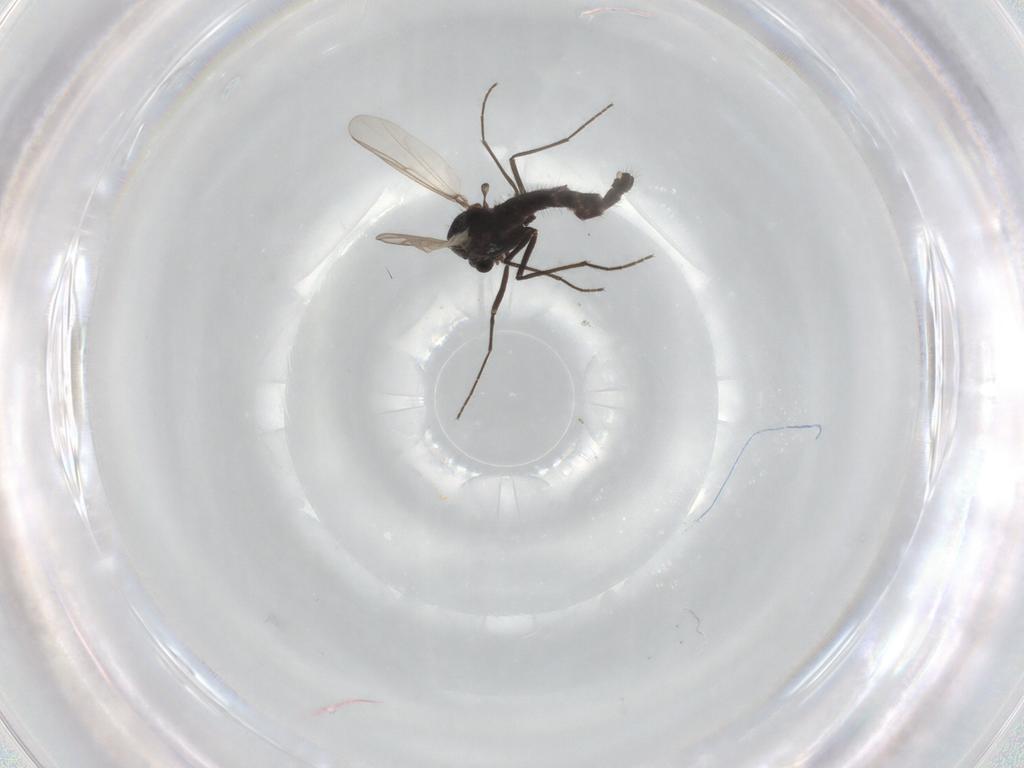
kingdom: Animalia
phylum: Arthropoda
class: Insecta
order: Diptera
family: Chironomidae
